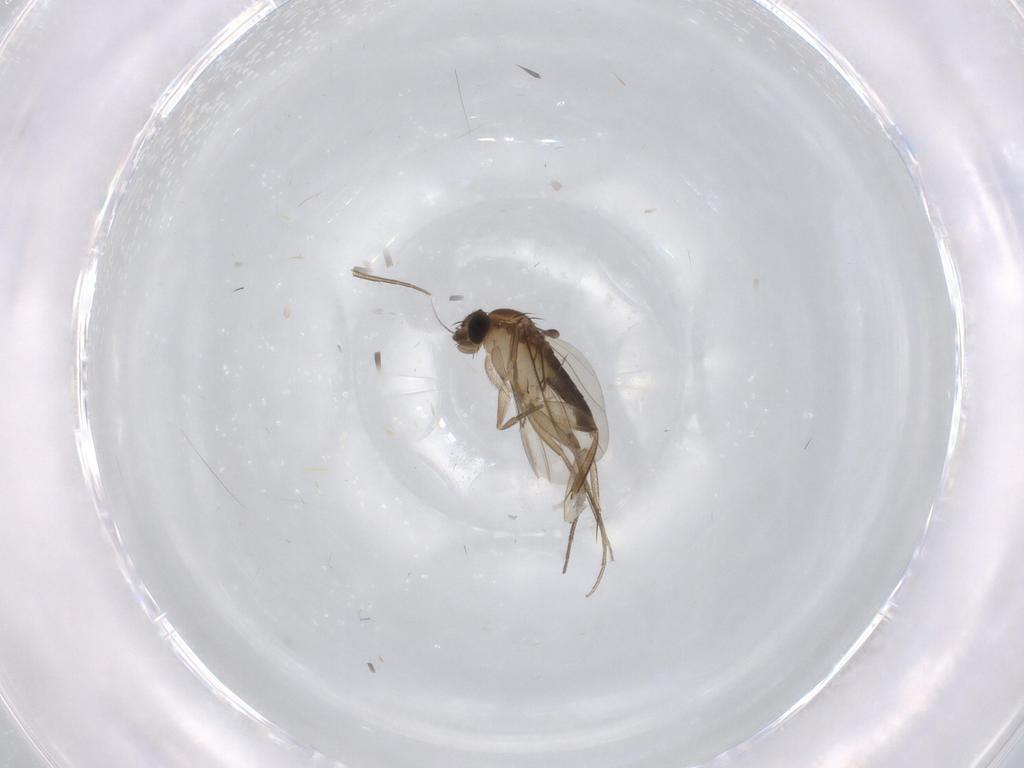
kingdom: Animalia
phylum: Arthropoda
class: Insecta
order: Diptera
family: Phoridae
